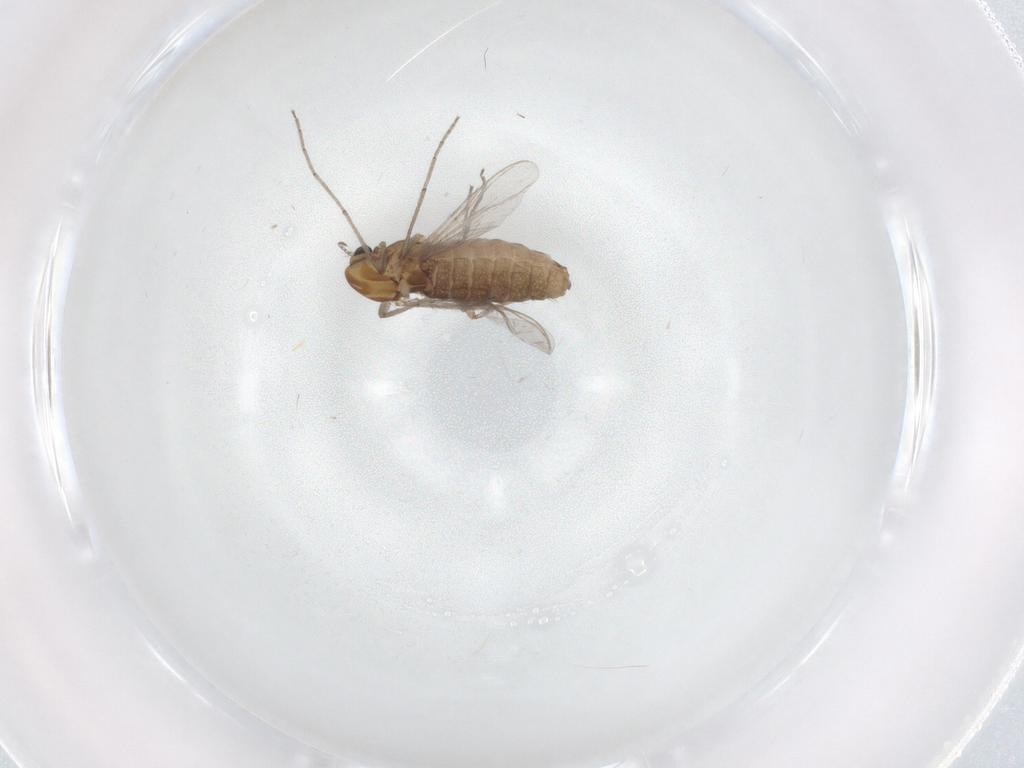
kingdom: Animalia
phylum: Arthropoda
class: Insecta
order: Diptera
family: Chironomidae
